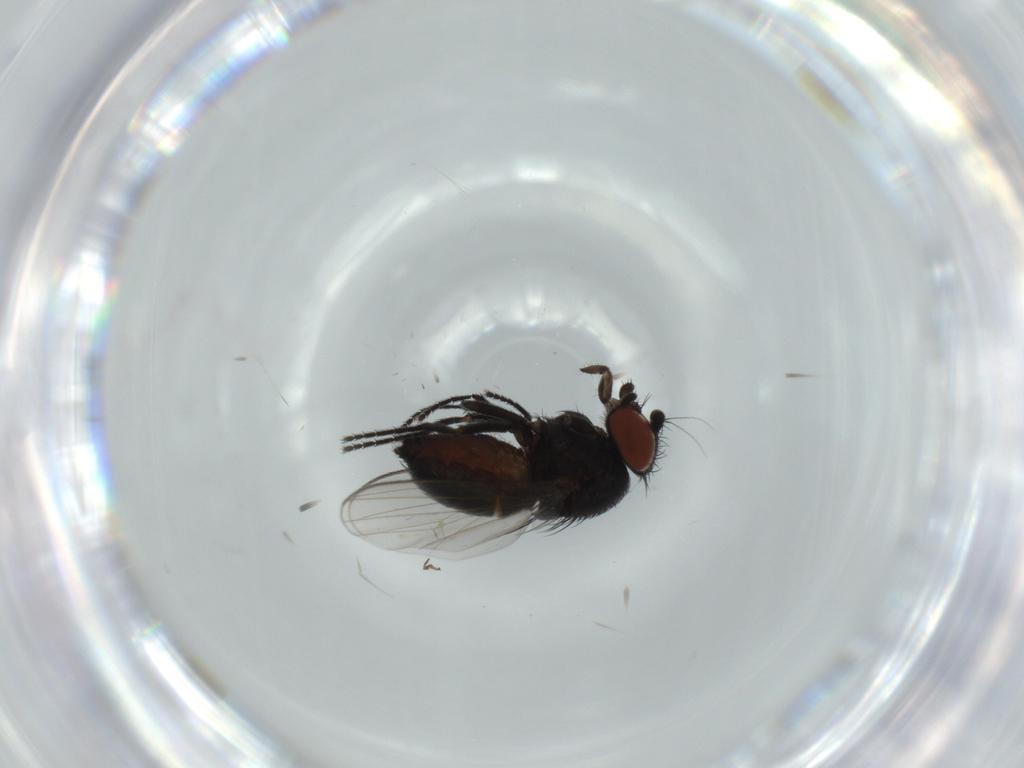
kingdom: Animalia
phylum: Arthropoda
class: Insecta
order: Diptera
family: Milichiidae
